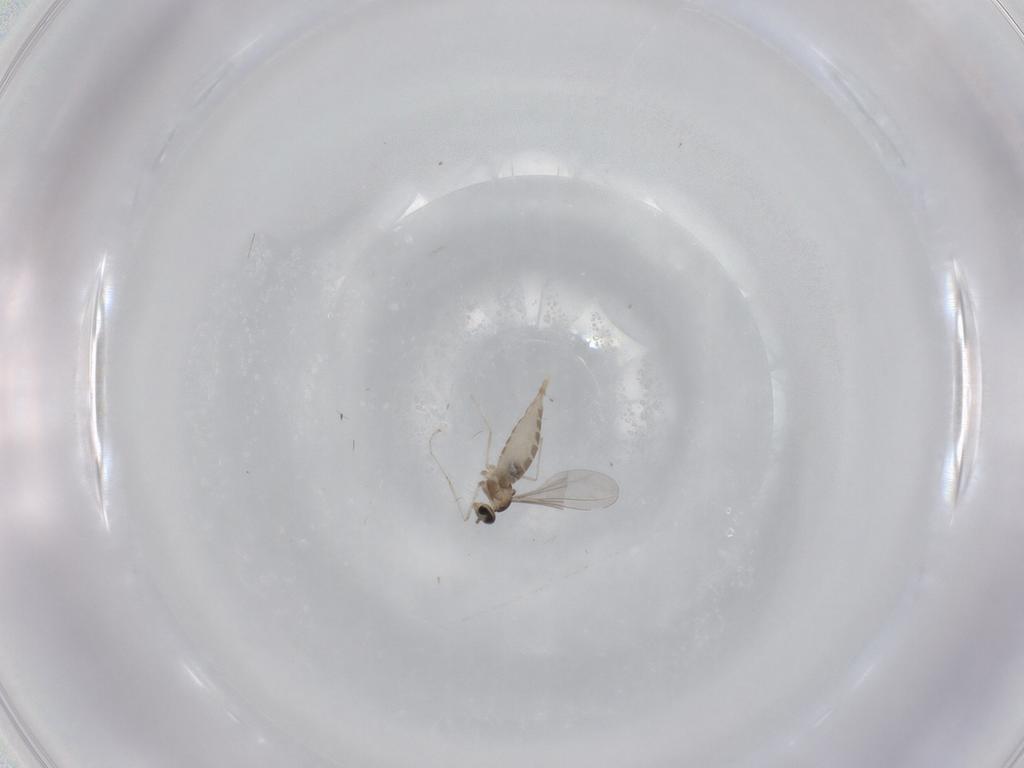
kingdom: Animalia
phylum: Arthropoda
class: Insecta
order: Diptera
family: Cecidomyiidae
